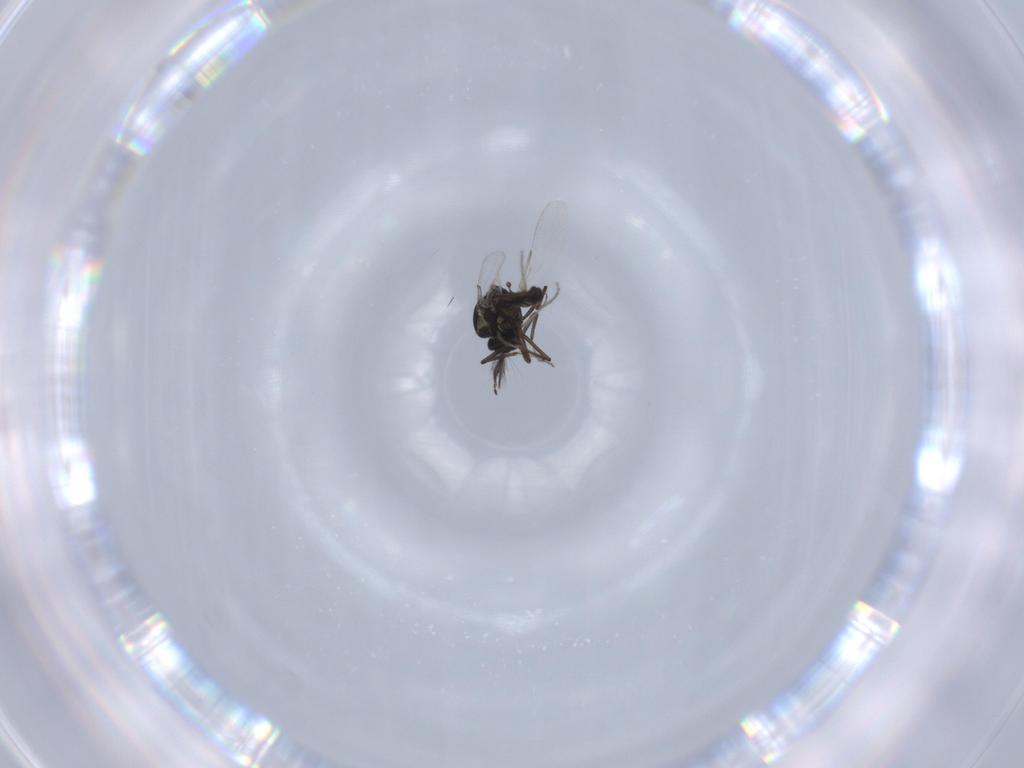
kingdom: Animalia
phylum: Arthropoda
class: Insecta
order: Diptera
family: Ceratopogonidae
